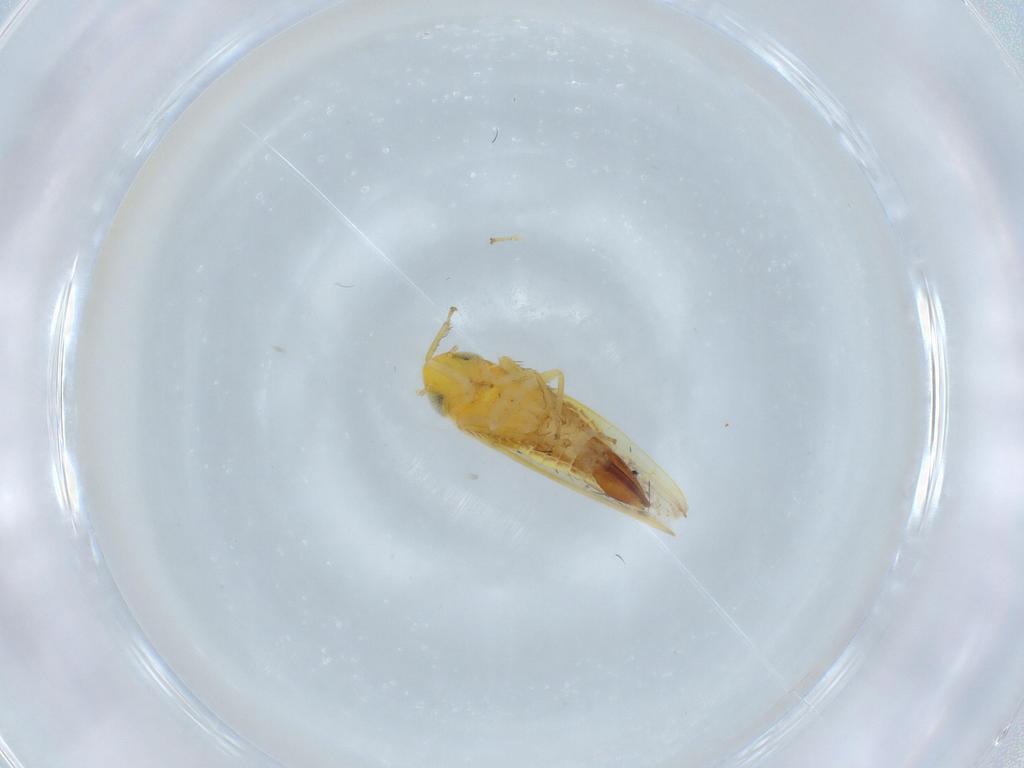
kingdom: Animalia
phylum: Arthropoda
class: Insecta
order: Hemiptera
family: Cicadellidae
